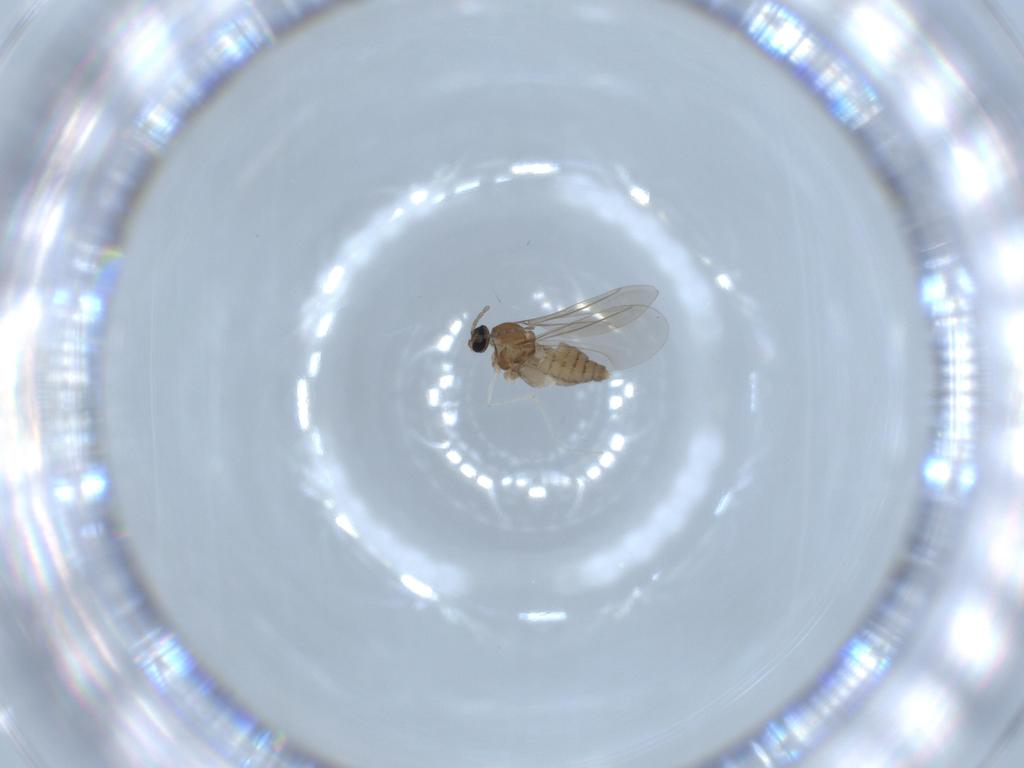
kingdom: Animalia
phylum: Arthropoda
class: Insecta
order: Diptera
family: Cecidomyiidae
